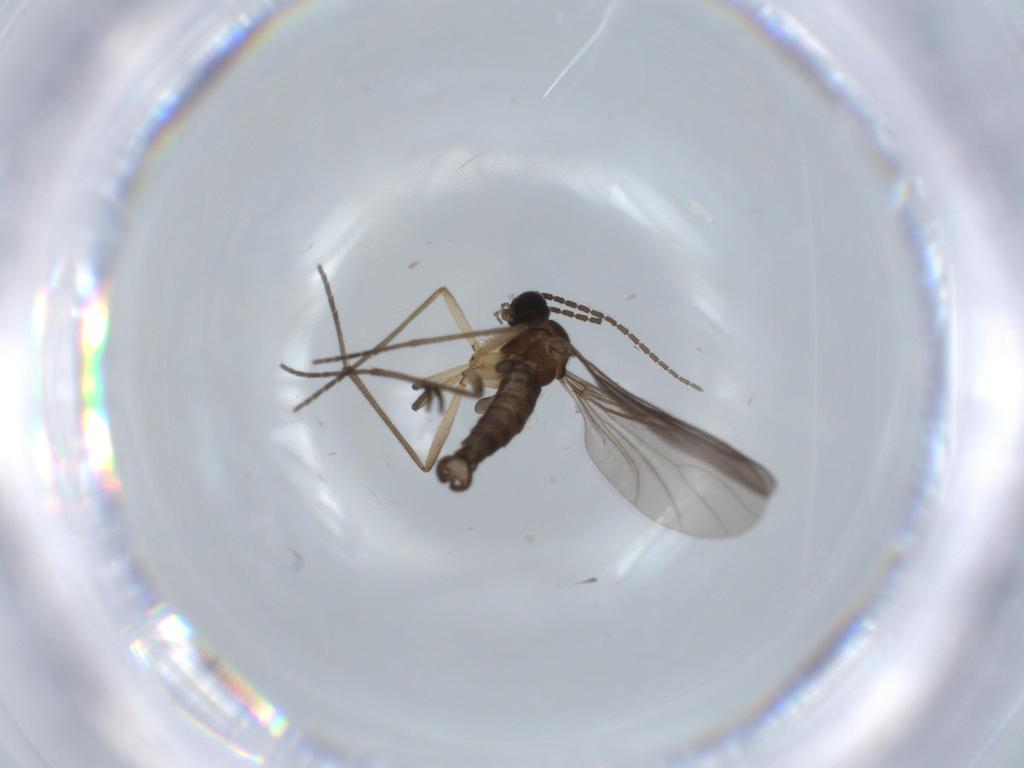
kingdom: Animalia
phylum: Arthropoda
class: Insecta
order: Diptera
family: Sciaridae
